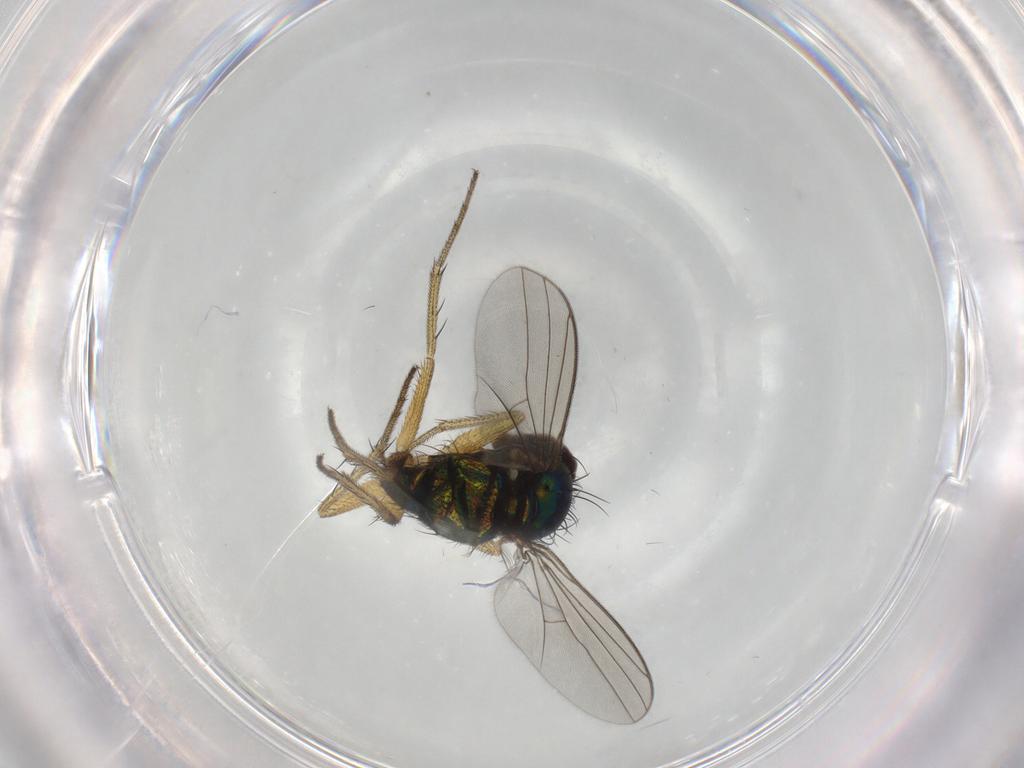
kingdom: Animalia
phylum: Arthropoda
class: Insecta
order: Diptera
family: Dolichopodidae
